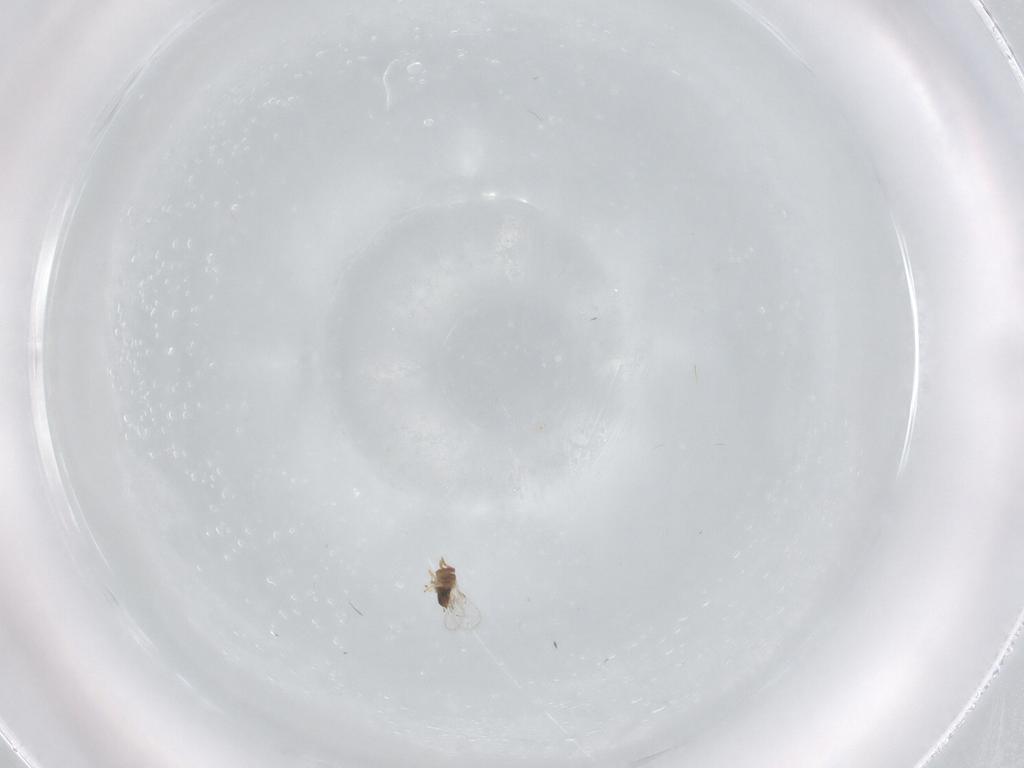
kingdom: Animalia
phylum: Arthropoda
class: Insecta
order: Hymenoptera
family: Trichogrammatidae
